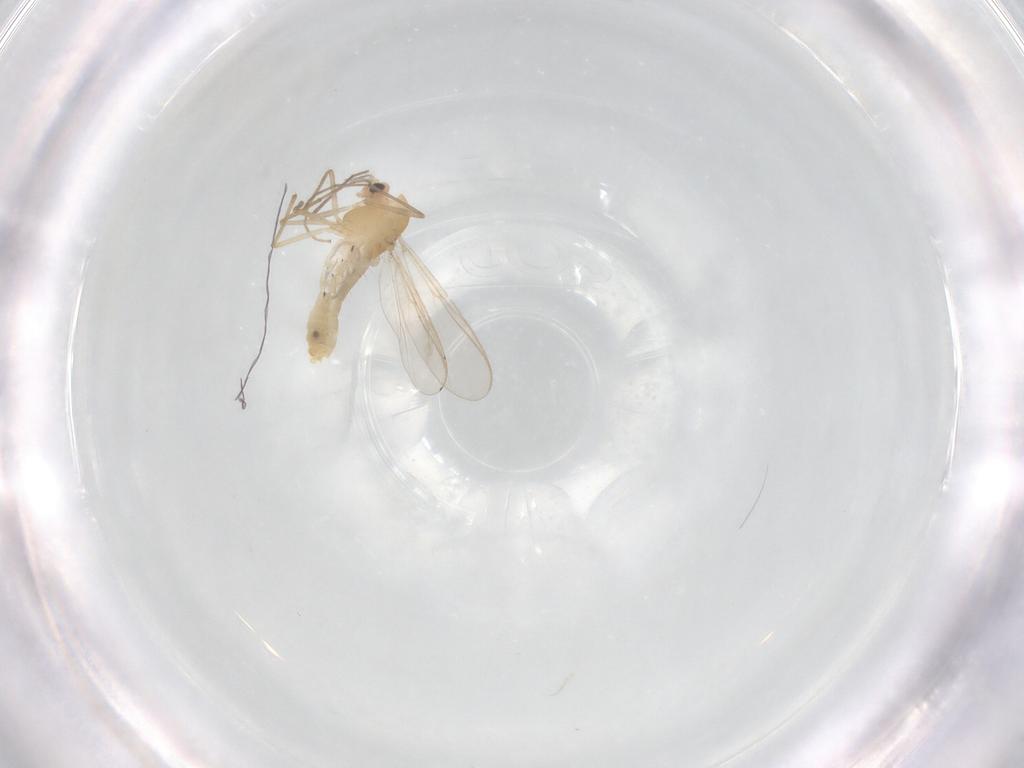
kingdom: Animalia
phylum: Arthropoda
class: Insecta
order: Diptera
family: Chironomidae
